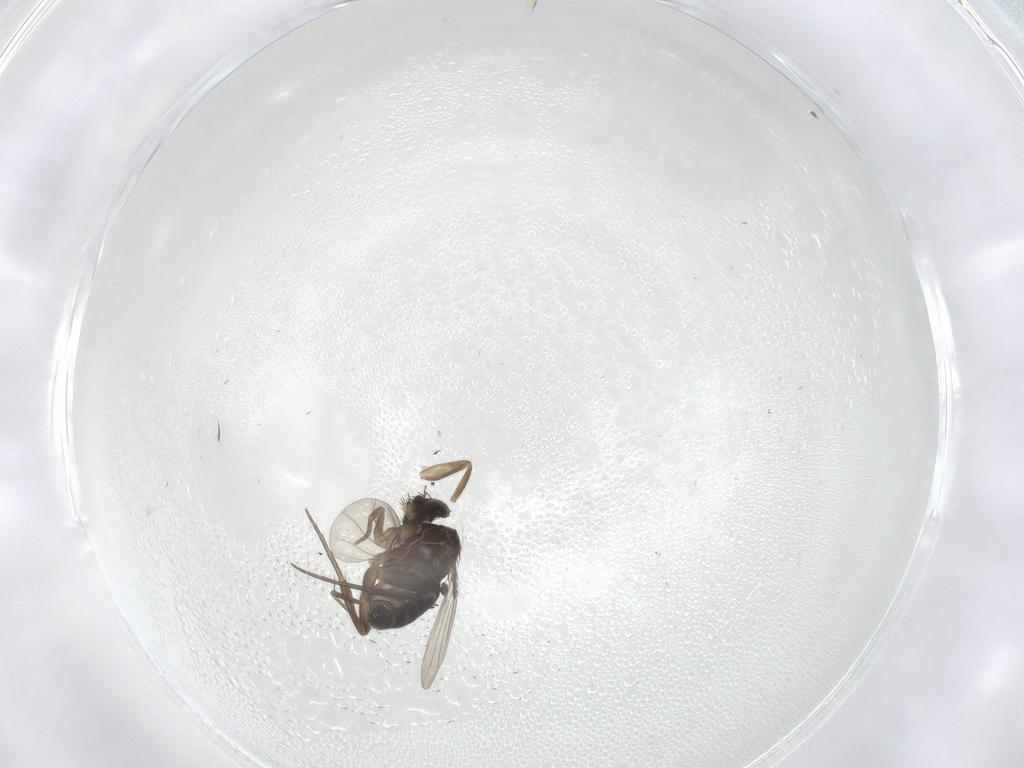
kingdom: Animalia
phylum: Arthropoda
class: Insecta
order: Diptera
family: Phoridae
